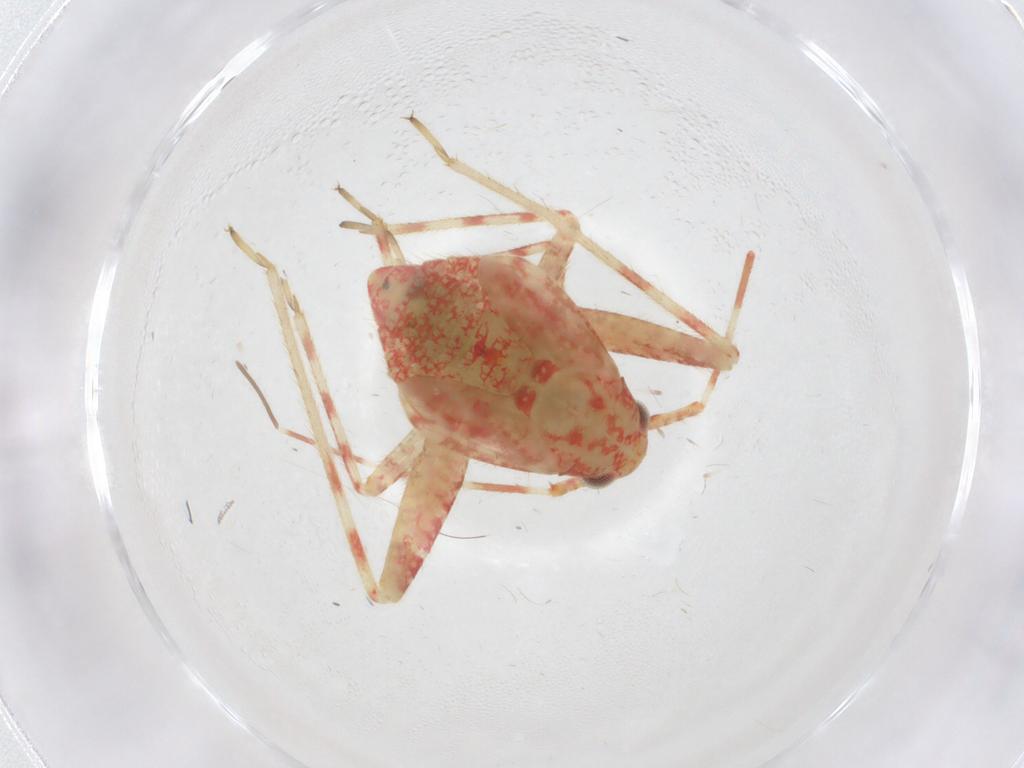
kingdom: Animalia
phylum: Arthropoda
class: Insecta
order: Hemiptera
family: Miridae
